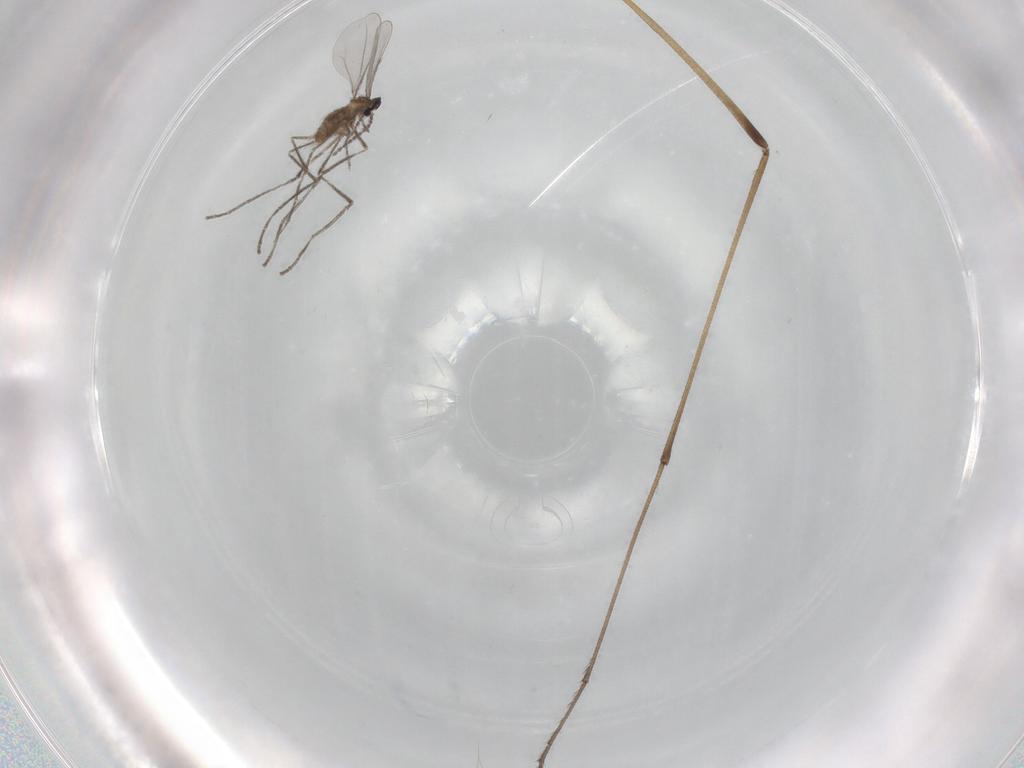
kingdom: Animalia
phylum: Arthropoda
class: Insecta
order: Diptera
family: Limoniidae
